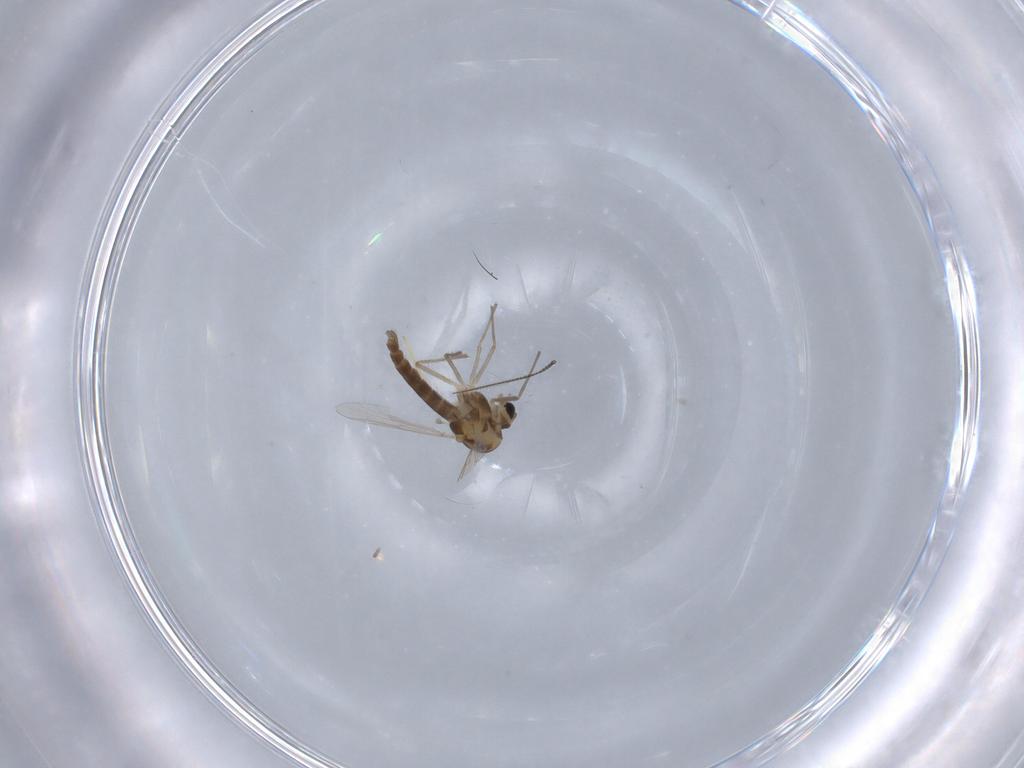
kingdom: Animalia
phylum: Arthropoda
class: Insecta
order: Diptera
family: Chironomidae
